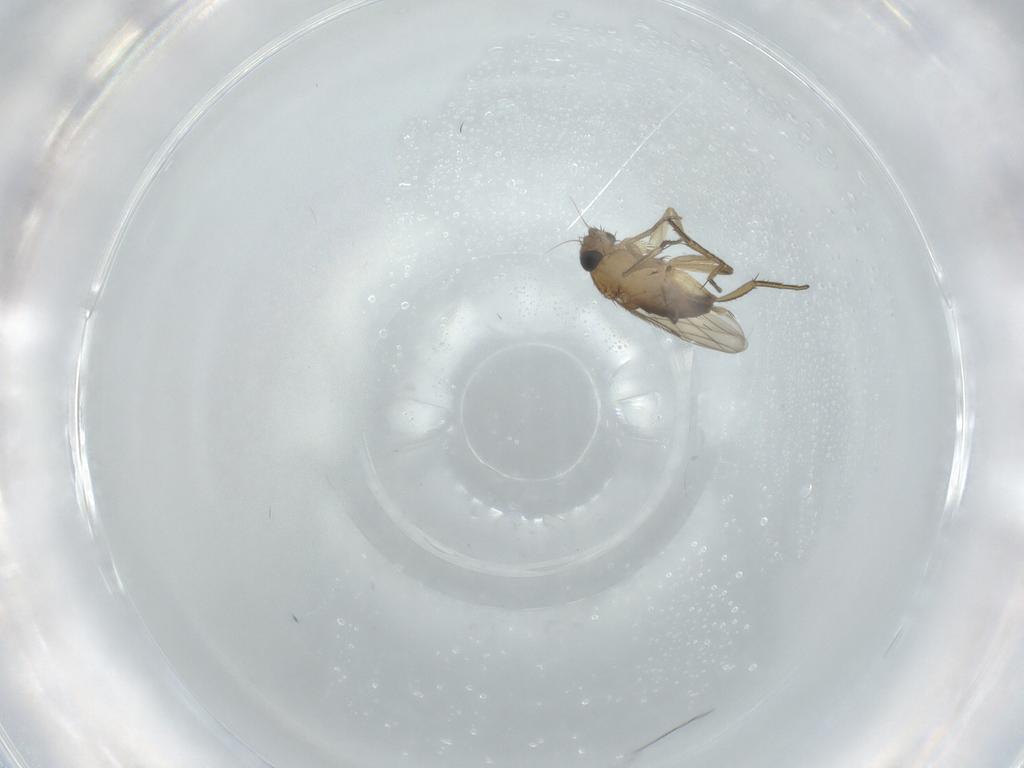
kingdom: Animalia
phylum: Arthropoda
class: Insecta
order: Diptera
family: Phoridae
